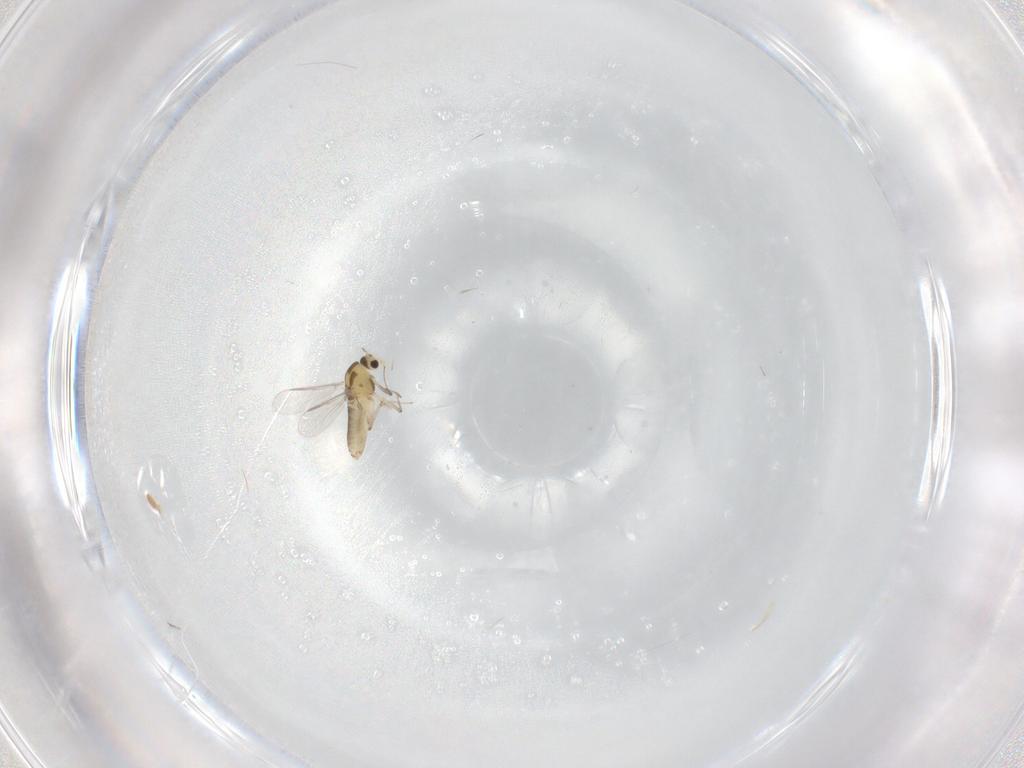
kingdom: Animalia
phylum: Arthropoda
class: Insecta
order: Diptera
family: Chironomidae
